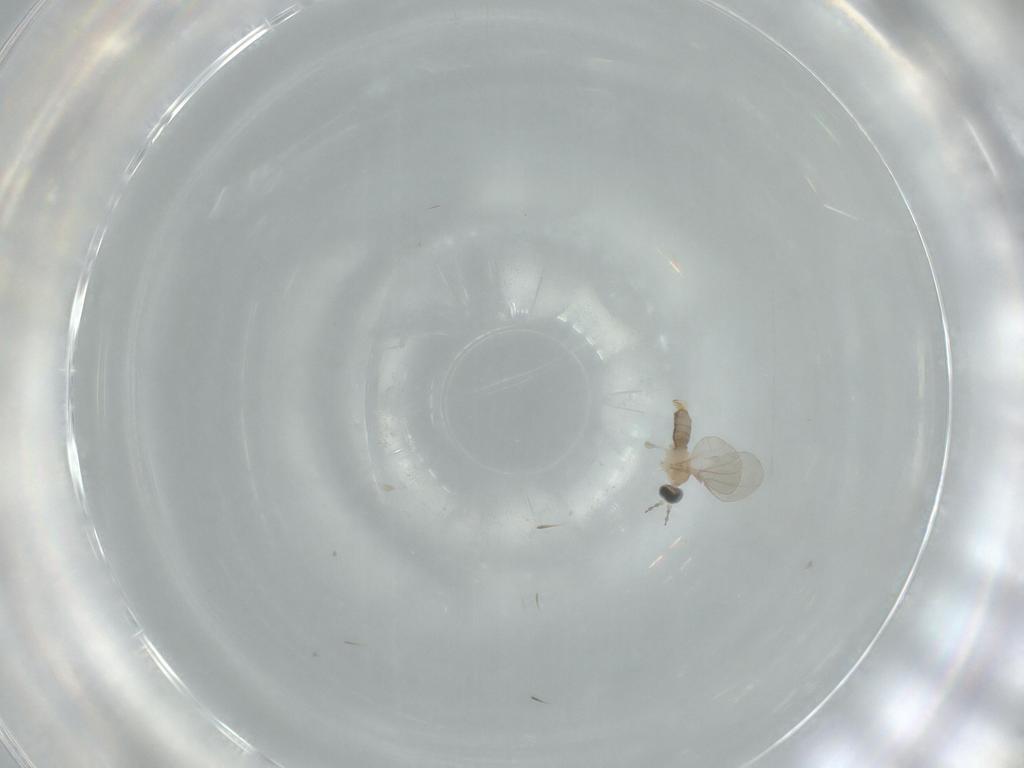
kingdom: Animalia
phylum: Arthropoda
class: Insecta
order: Diptera
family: Cecidomyiidae
